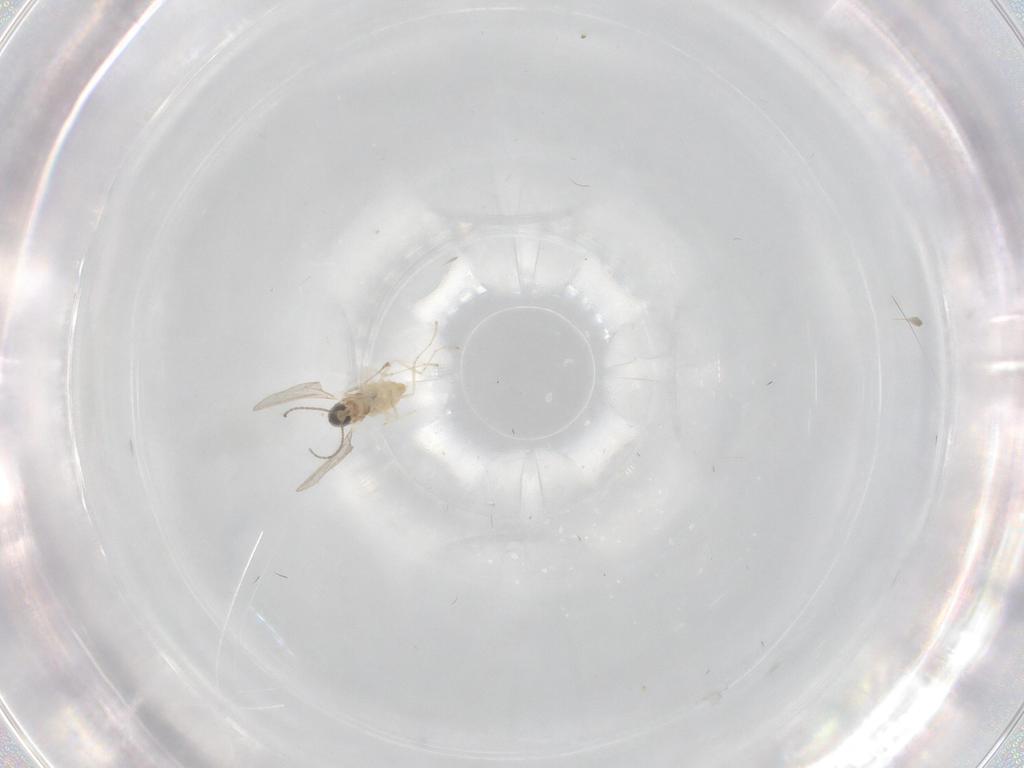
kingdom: Animalia
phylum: Arthropoda
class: Insecta
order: Diptera
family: Cecidomyiidae
